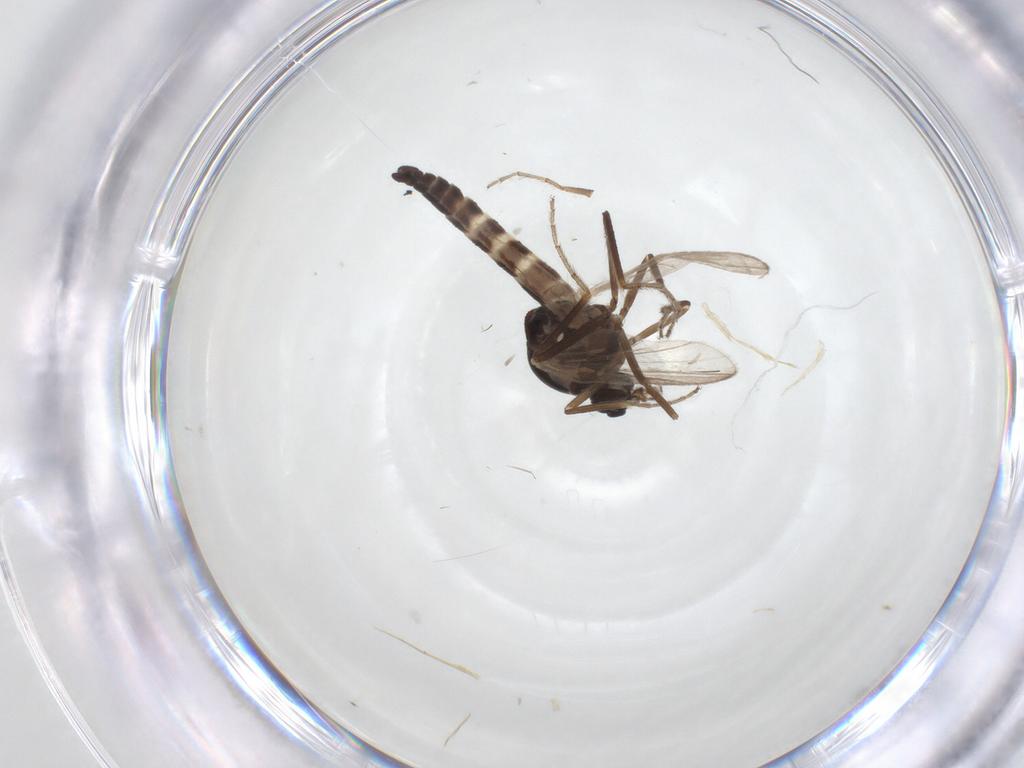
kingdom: Animalia
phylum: Arthropoda
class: Insecta
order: Diptera
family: Ceratopogonidae
